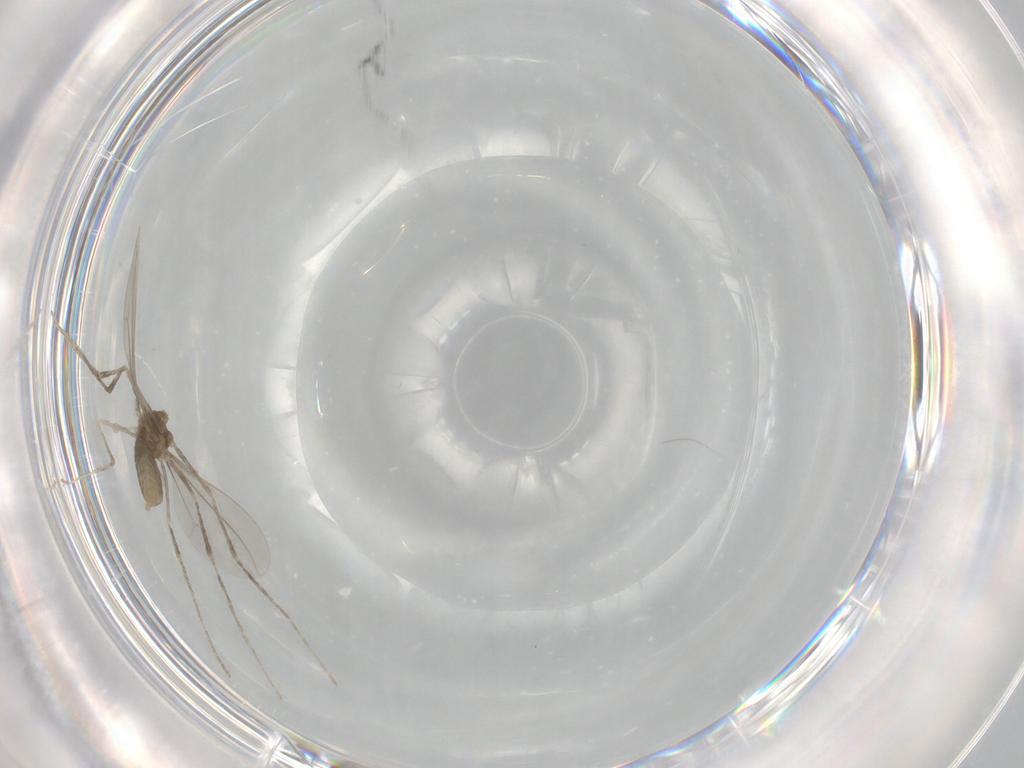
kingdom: Animalia
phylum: Arthropoda
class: Insecta
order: Diptera
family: Cecidomyiidae
